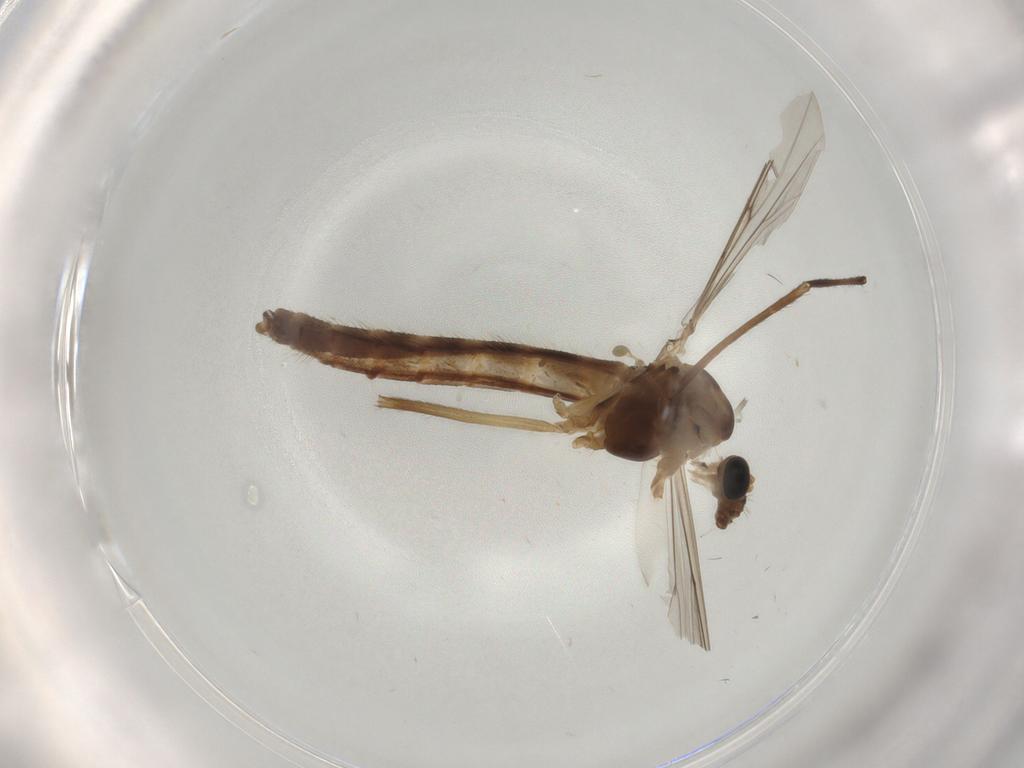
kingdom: Animalia
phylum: Arthropoda
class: Insecta
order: Diptera
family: Chironomidae
